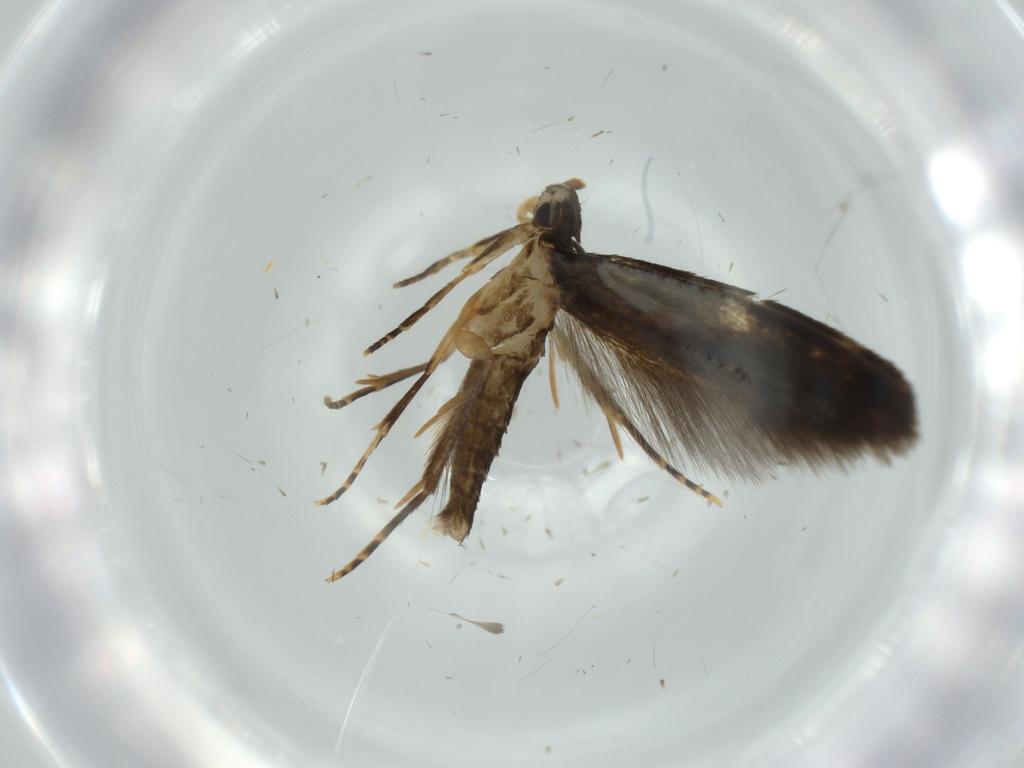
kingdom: Animalia
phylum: Arthropoda
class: Insecta
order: Lepidoptera
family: Tineidae
